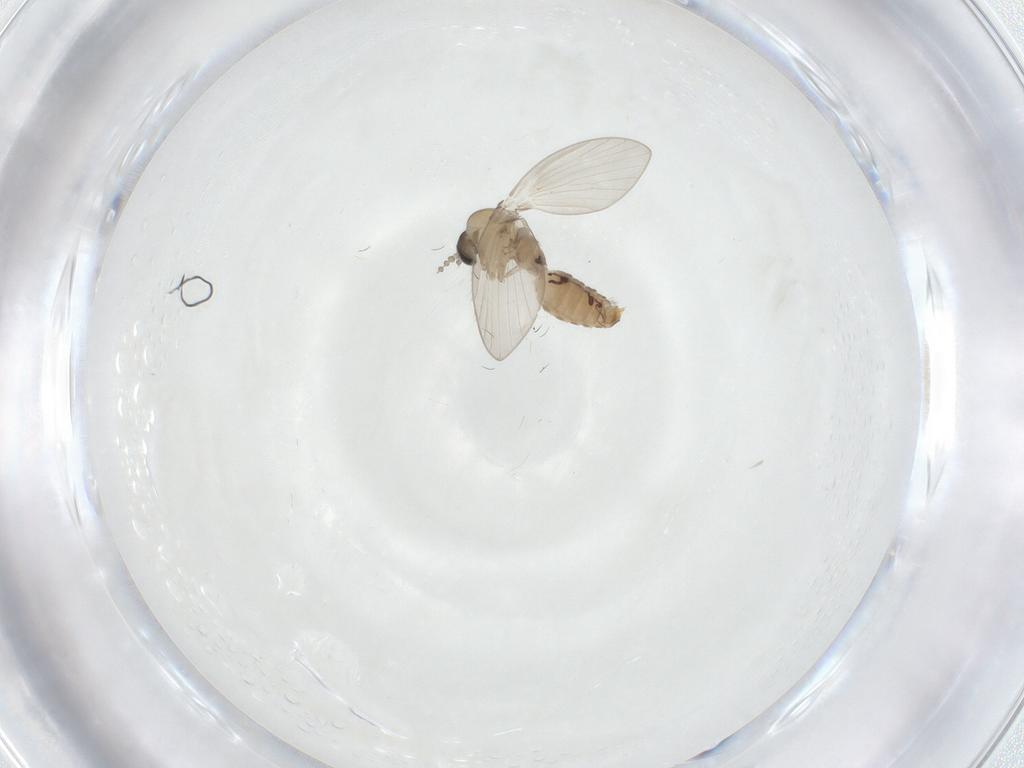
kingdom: Animalia
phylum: Arthropoda
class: Insecta
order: Diptera
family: Psychodidae
